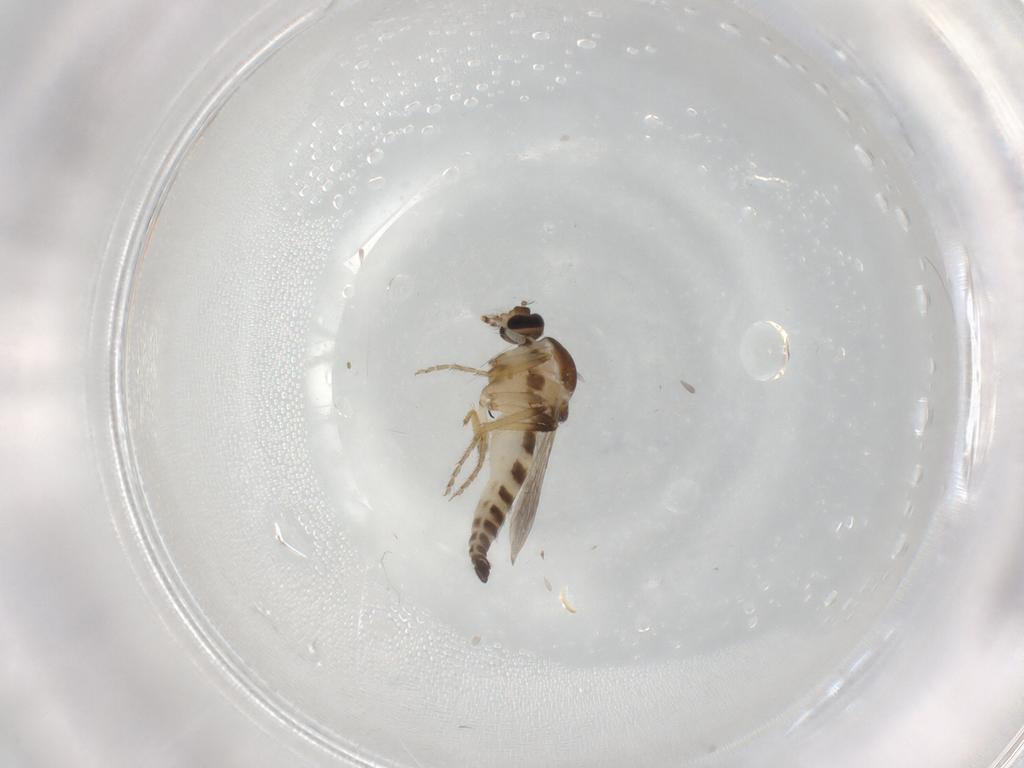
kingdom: Animalia
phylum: Arthropoda
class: Insecta
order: Diptera
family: Ceratopogonidae
